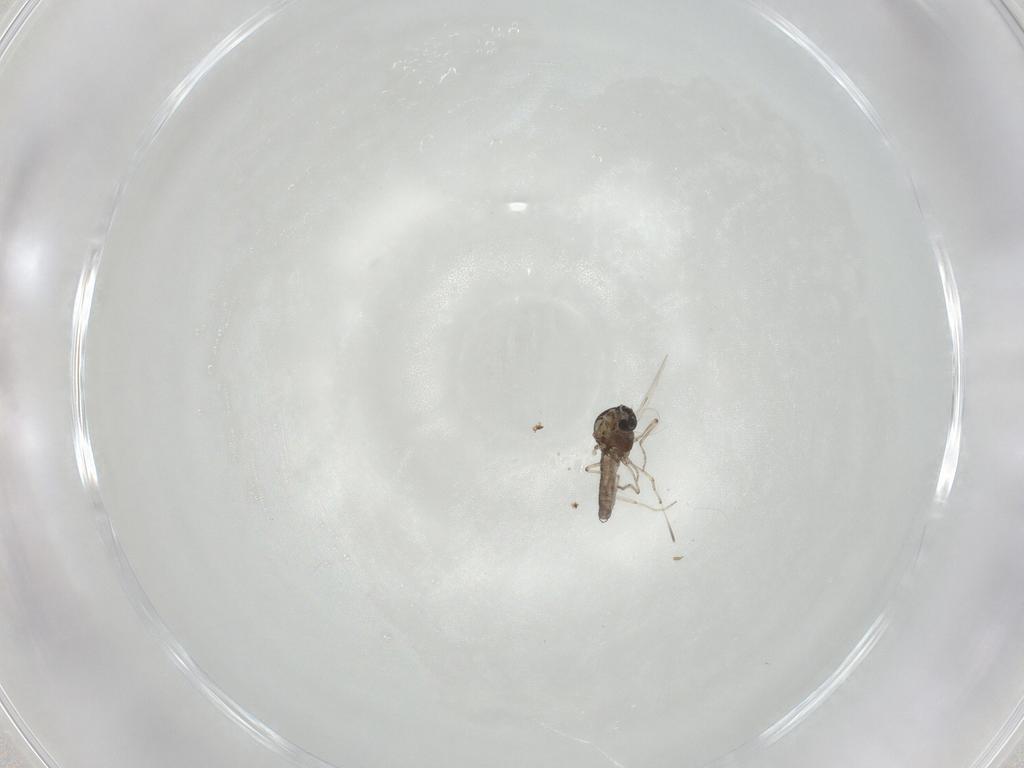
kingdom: Animalia
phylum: Arthropoda
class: Insecta
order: Diptera
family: Ceratopogonidae
